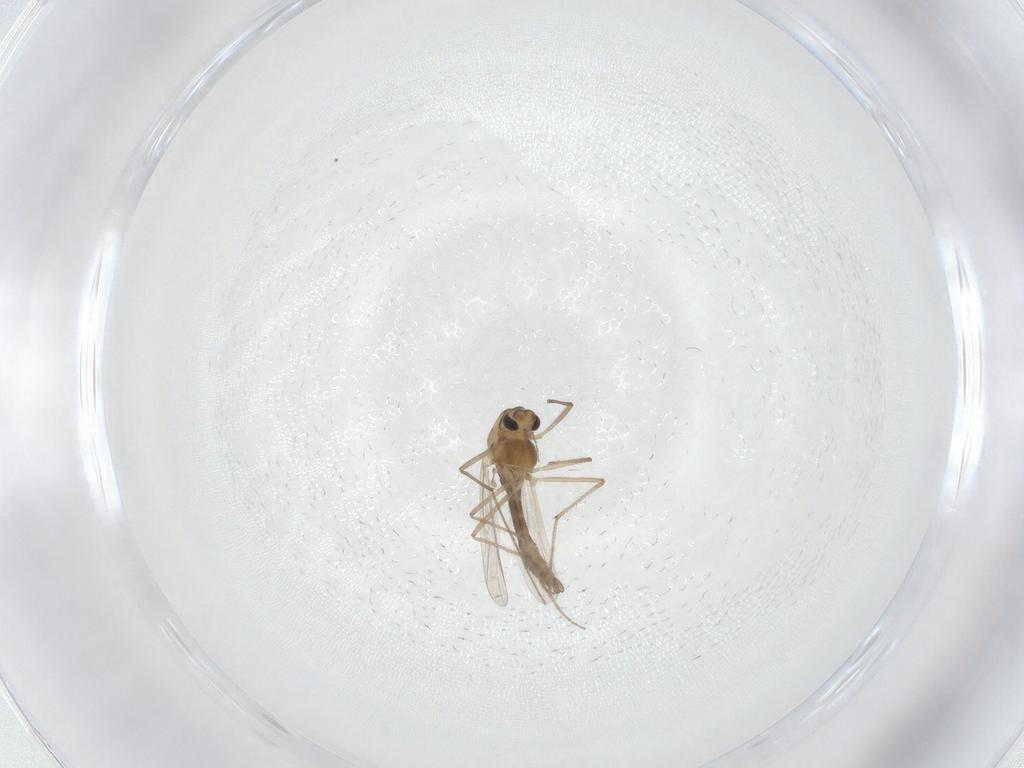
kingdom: Animalia
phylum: Arthropoda
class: Insecta
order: Diptera
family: Chironomidae
